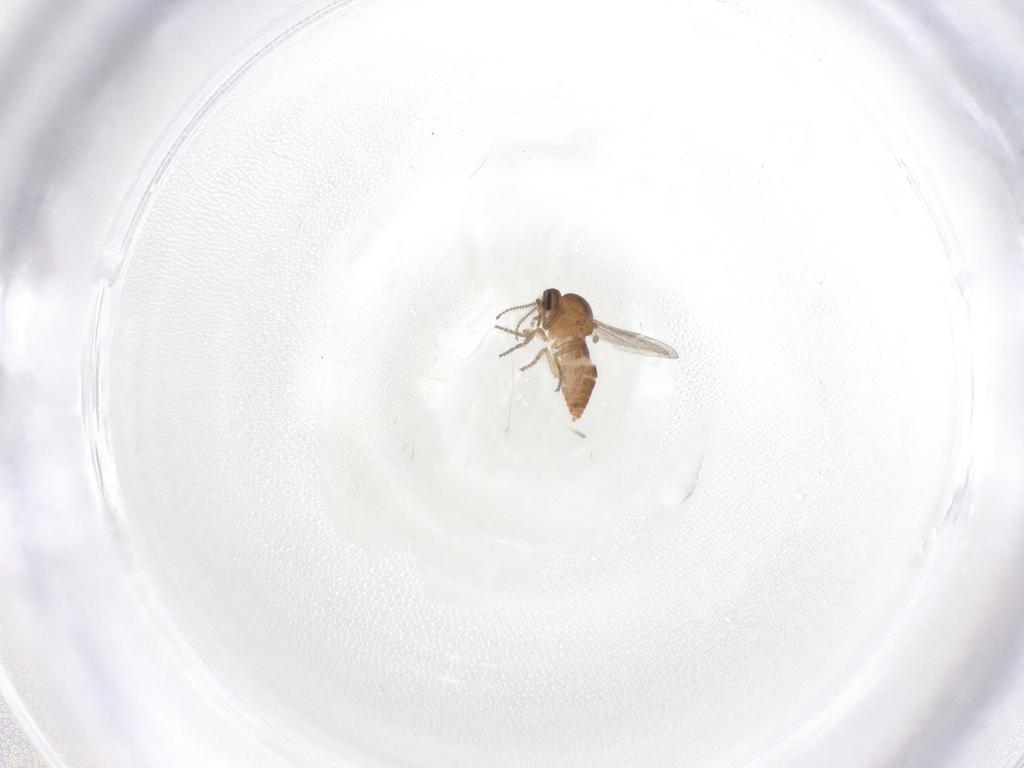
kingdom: Animalia
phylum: Arthropoda
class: Insecta
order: Diptera
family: Ceratopogonidae
